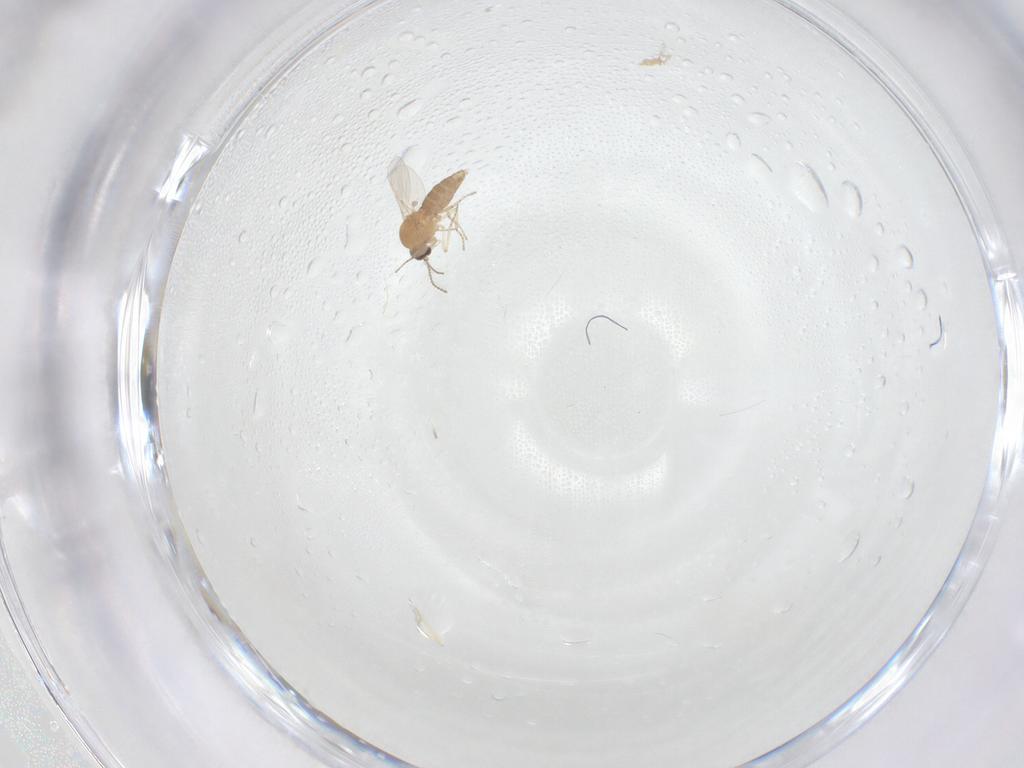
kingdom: Animalia
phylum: Arthropoda
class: Insecta
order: Diptera
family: Ceratopogonidae
